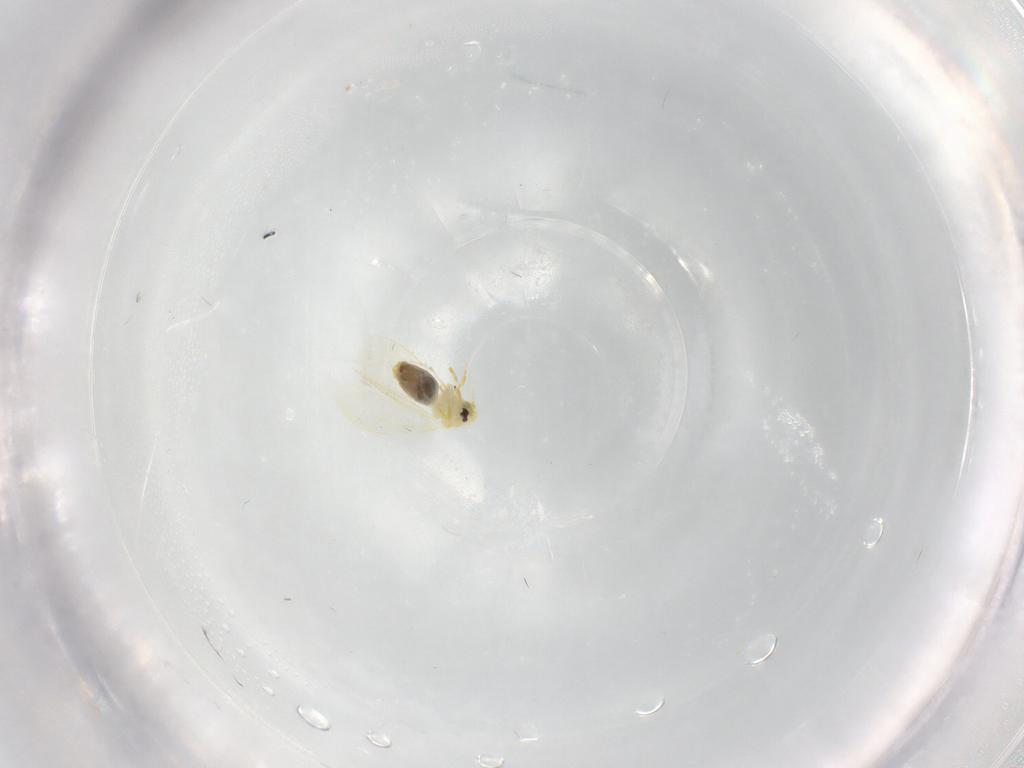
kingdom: Animalia
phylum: Arthropoda
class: Insecta
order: Hemiptera
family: Aleyrodidae
